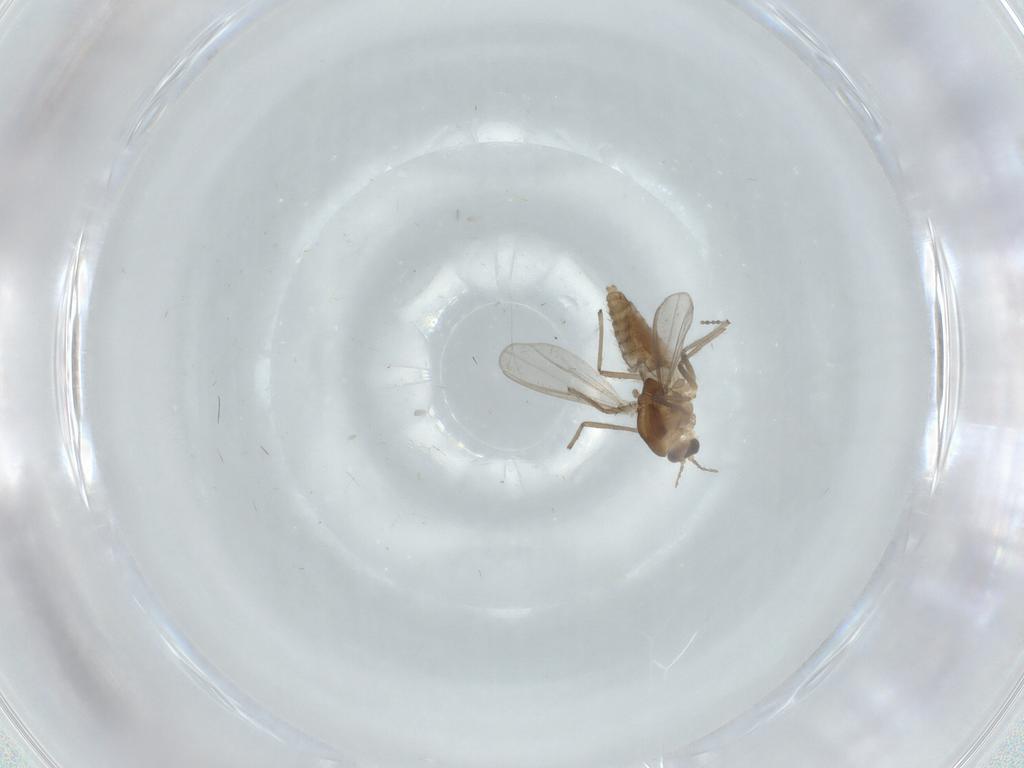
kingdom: Animalia
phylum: Arthropoda
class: Insecta
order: Diptera
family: Chironomidae
